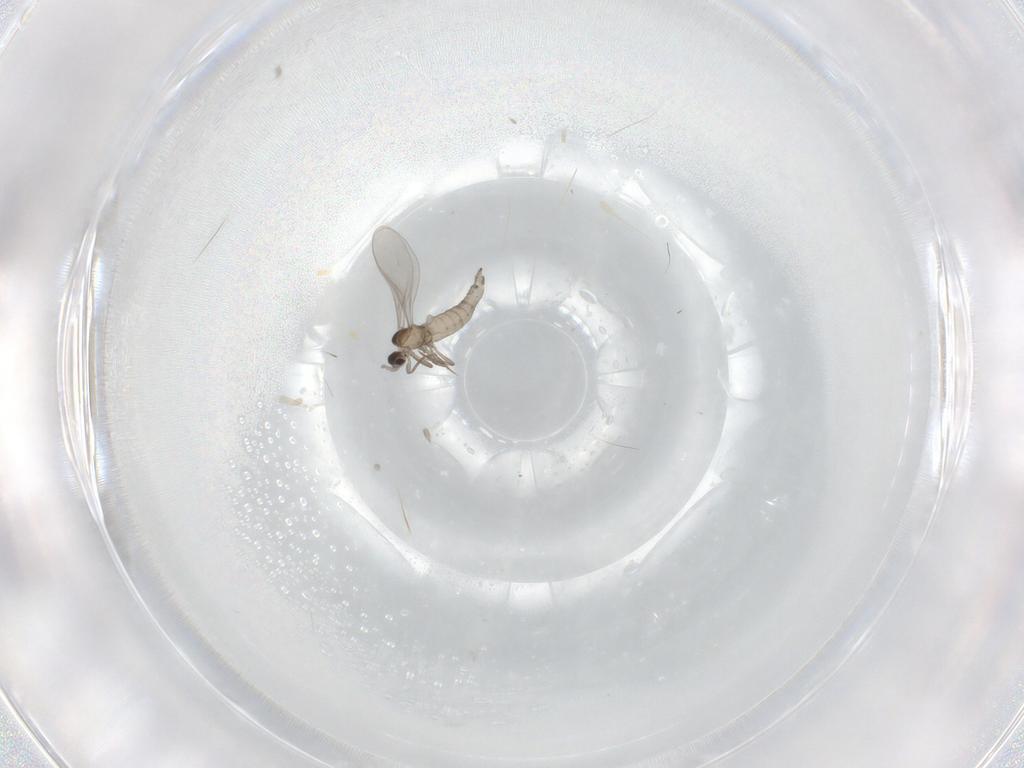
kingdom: Animalia
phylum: Arthropoda
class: Insecta
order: Diptera
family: Cecidomyiidae
